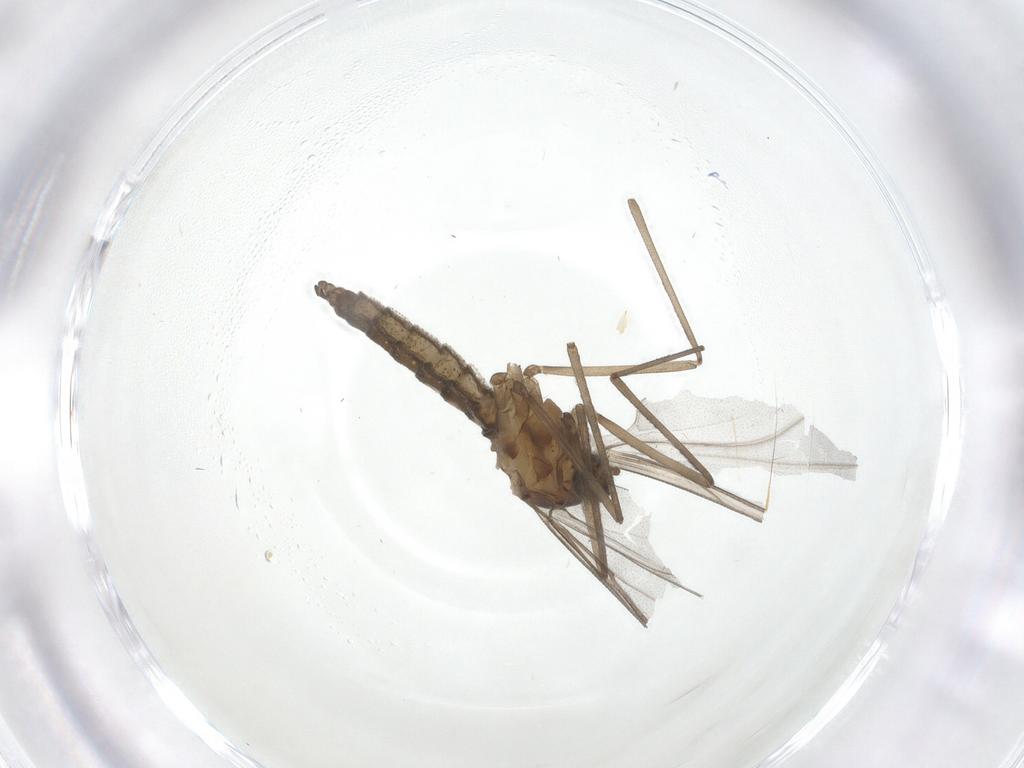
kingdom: Animalia
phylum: Arthropoda
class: Insecta
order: Diptera
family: Cecidomyiidae
